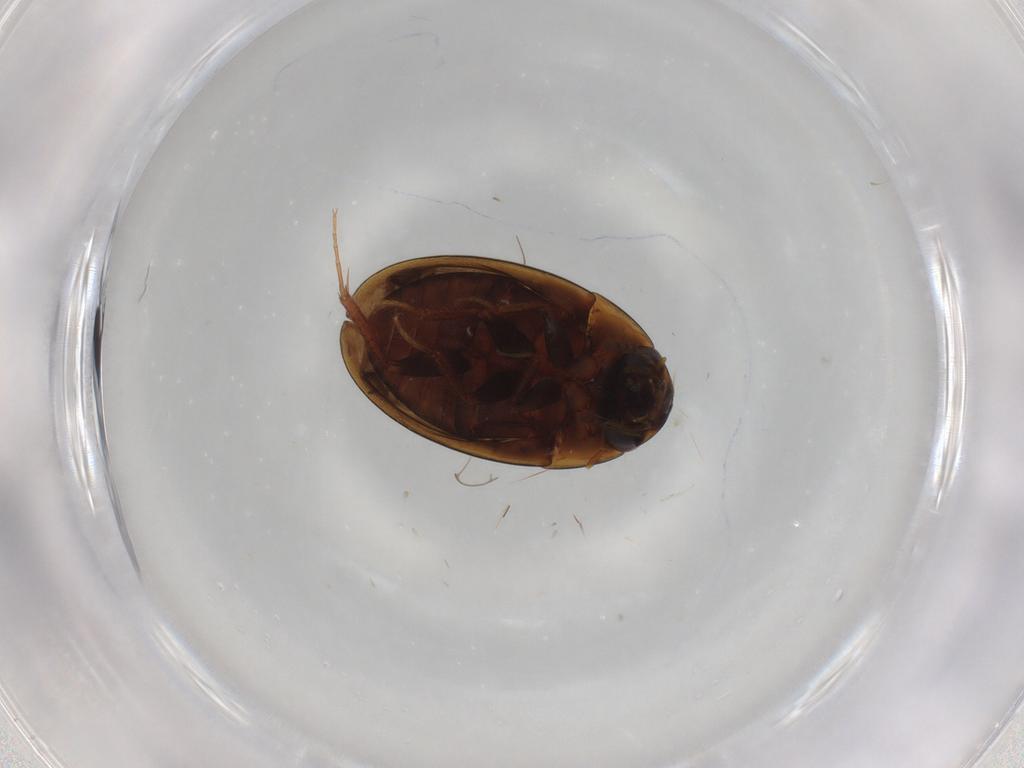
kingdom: Animalia
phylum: Arthropoda
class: Insecta
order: Coleoptera
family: Hydrophilidae
